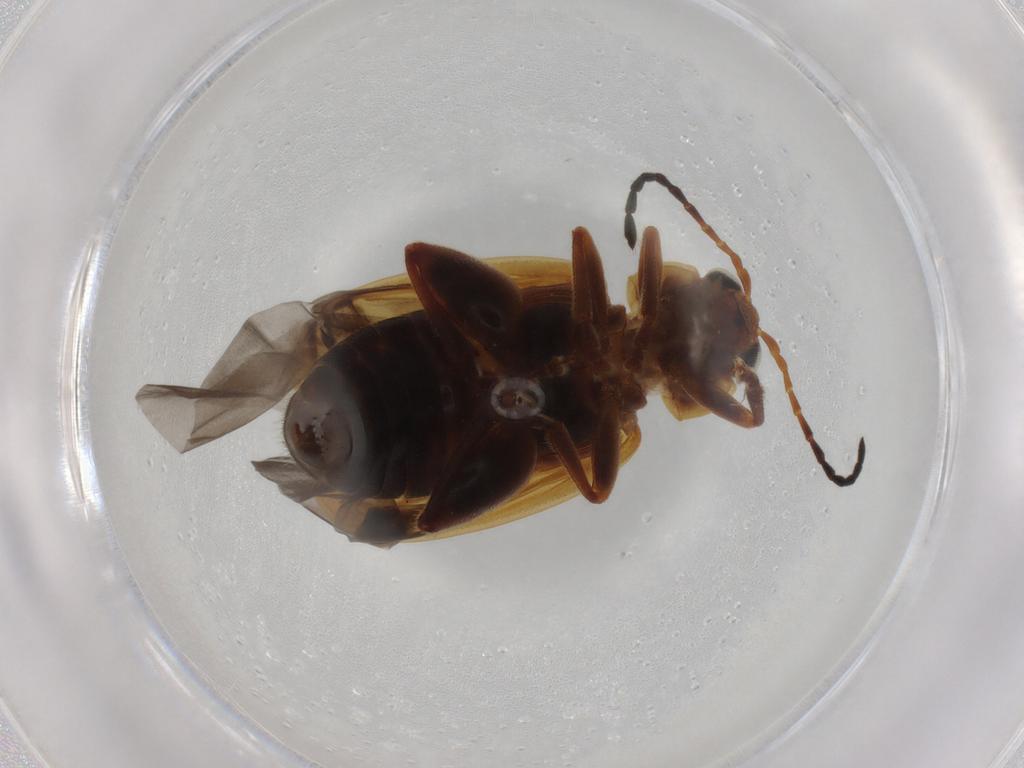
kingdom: Animalia
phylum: Arthropoda
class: Insecta
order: Coleoptera
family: Chrysomelidae
